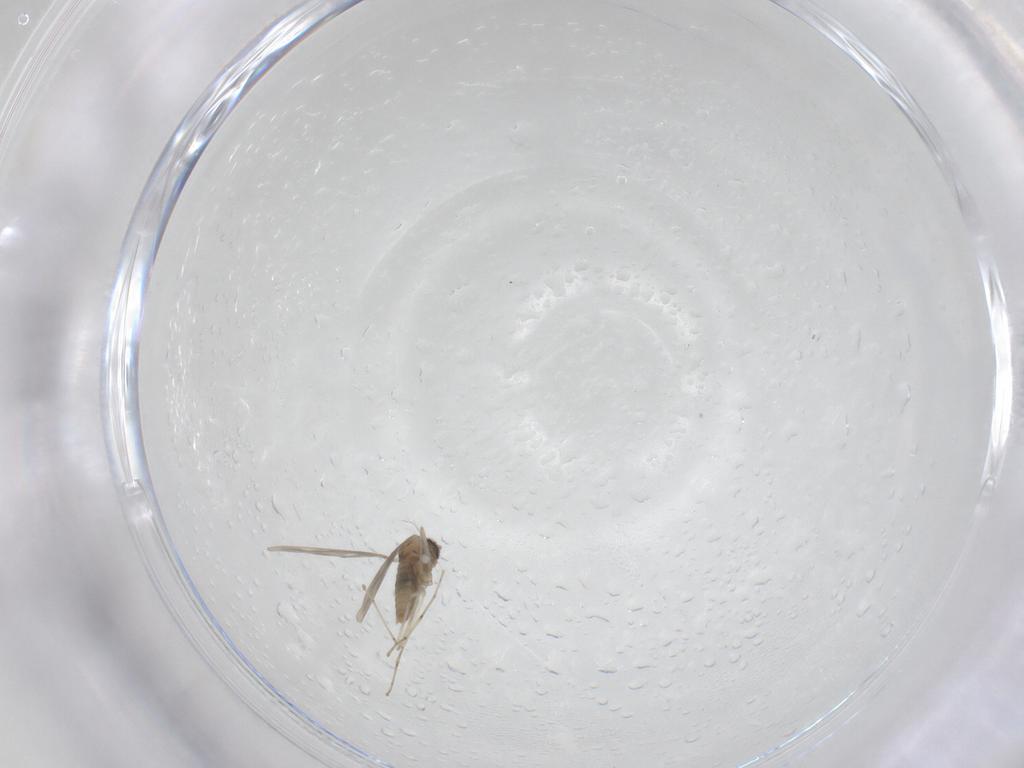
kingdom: Animalia
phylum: Arthropoda
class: Insecta
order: Diptera
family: Cecidomyiidae
